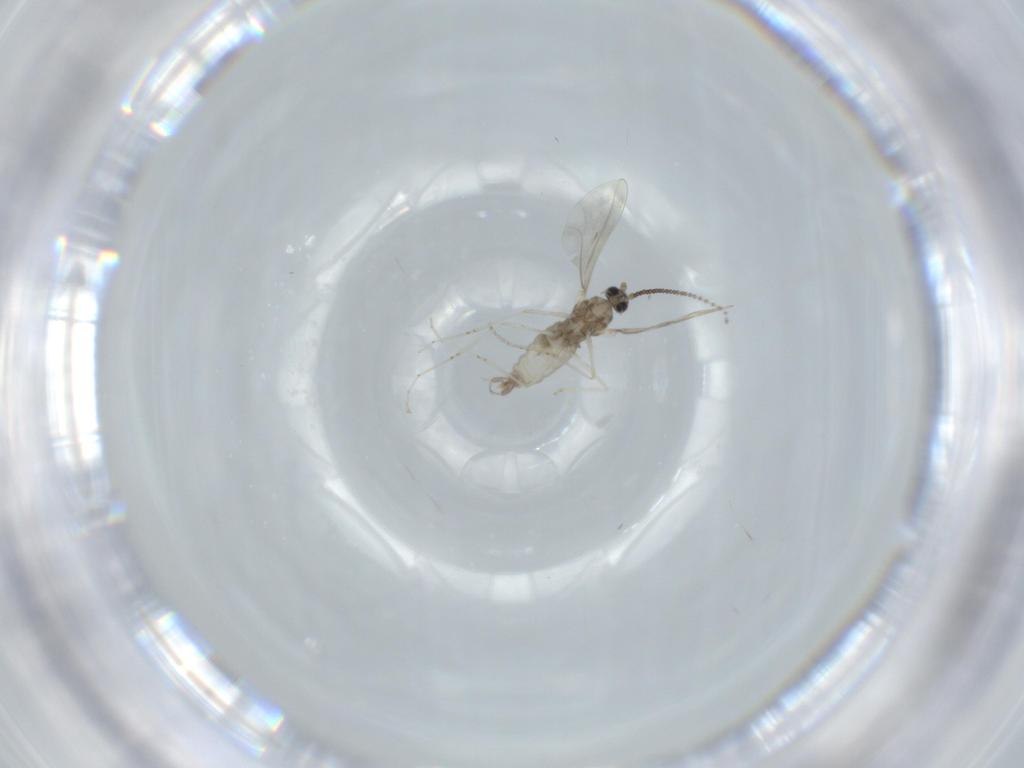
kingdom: Animalia
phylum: Arthropoda
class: Insecta
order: Diptera
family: Cecidomyiidae
